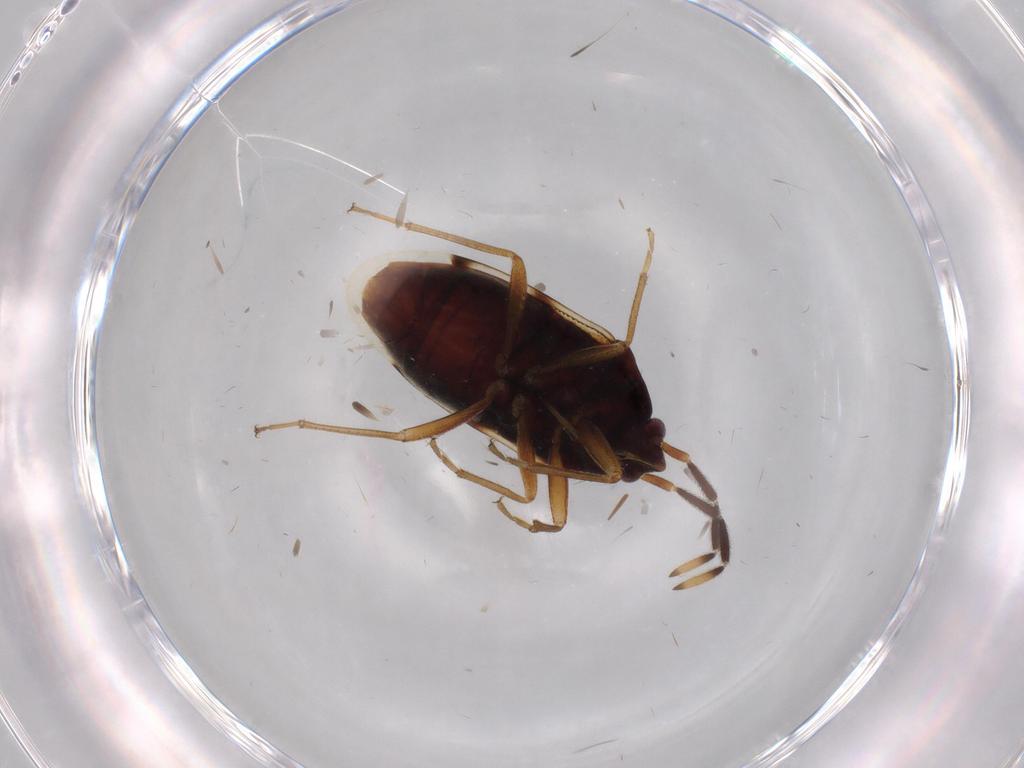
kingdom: Animalia
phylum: Arthropoda
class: Insecta
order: Hemiptera
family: Rhyparochromidae
